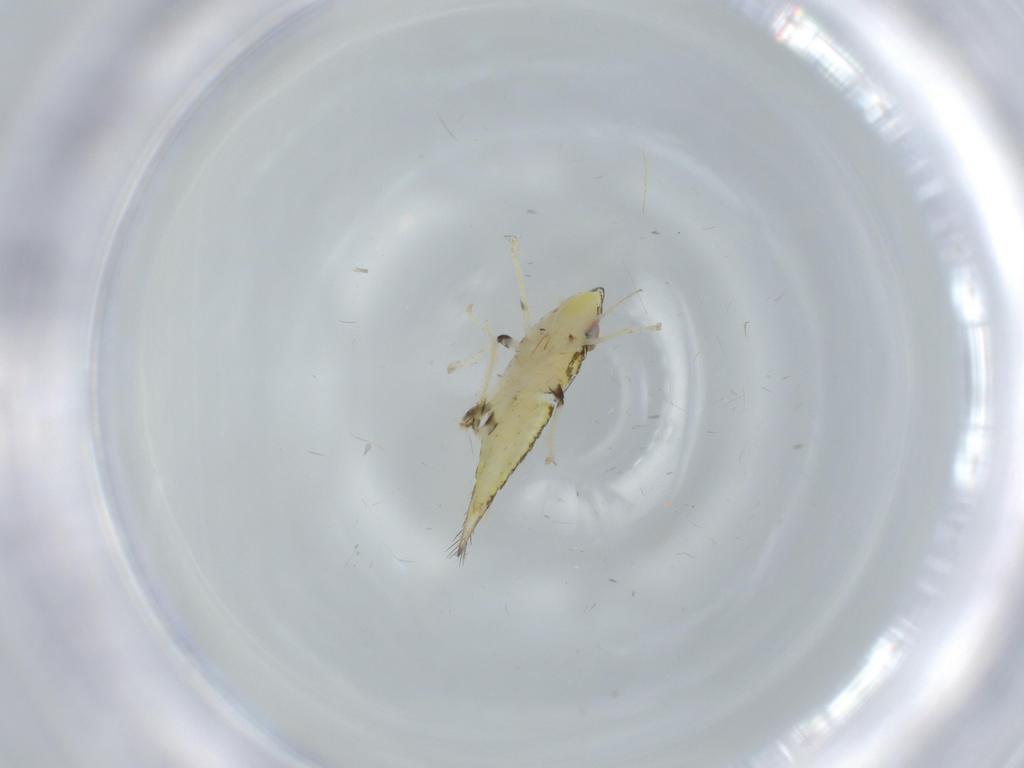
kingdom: Animalia
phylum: Arthropoda
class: Insecta
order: Hemiptera
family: Cicadellidae
